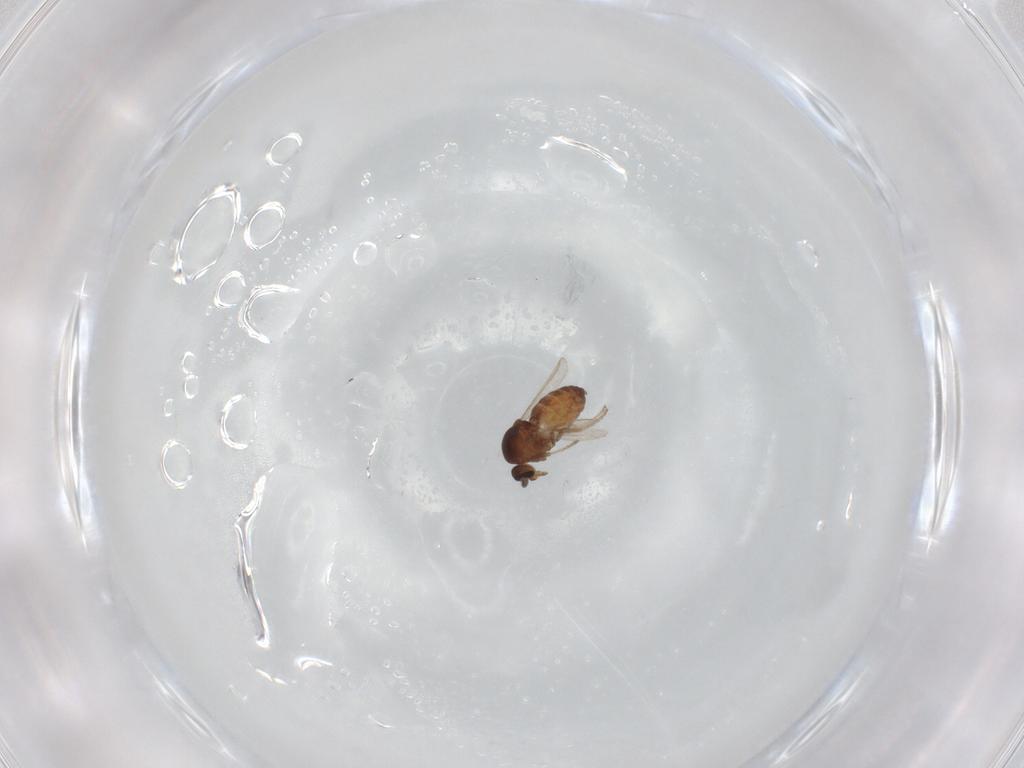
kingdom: Animalia
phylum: Arthropoda
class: Insecta
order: Diptera
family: Ceratopogonidae
